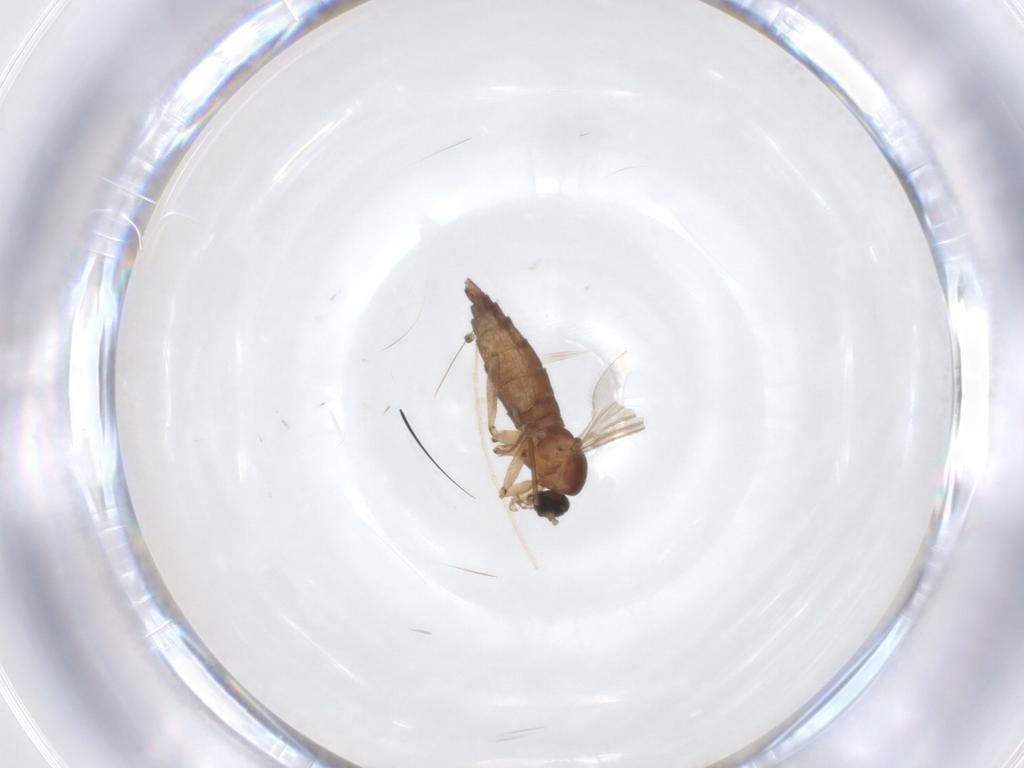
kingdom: Animalia
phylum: Arthropoda
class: Insecta
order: Diptera
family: Sciaridae
